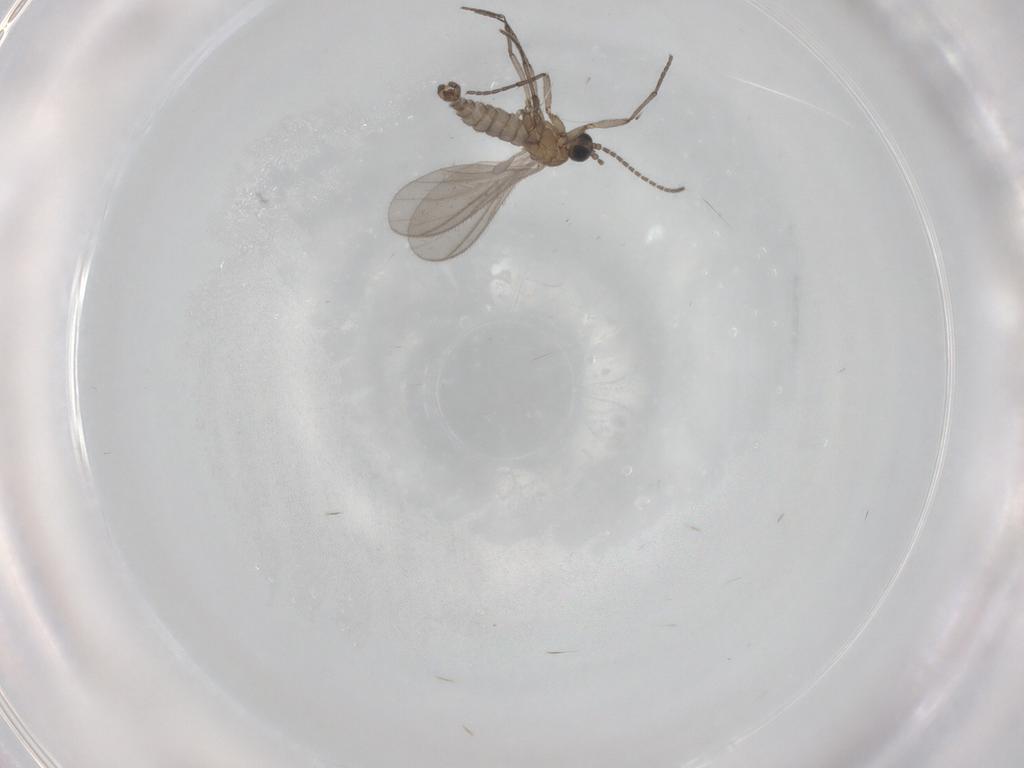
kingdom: Animalia
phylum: Arthropoda
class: Insecta
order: Diptera
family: Sciaridae
